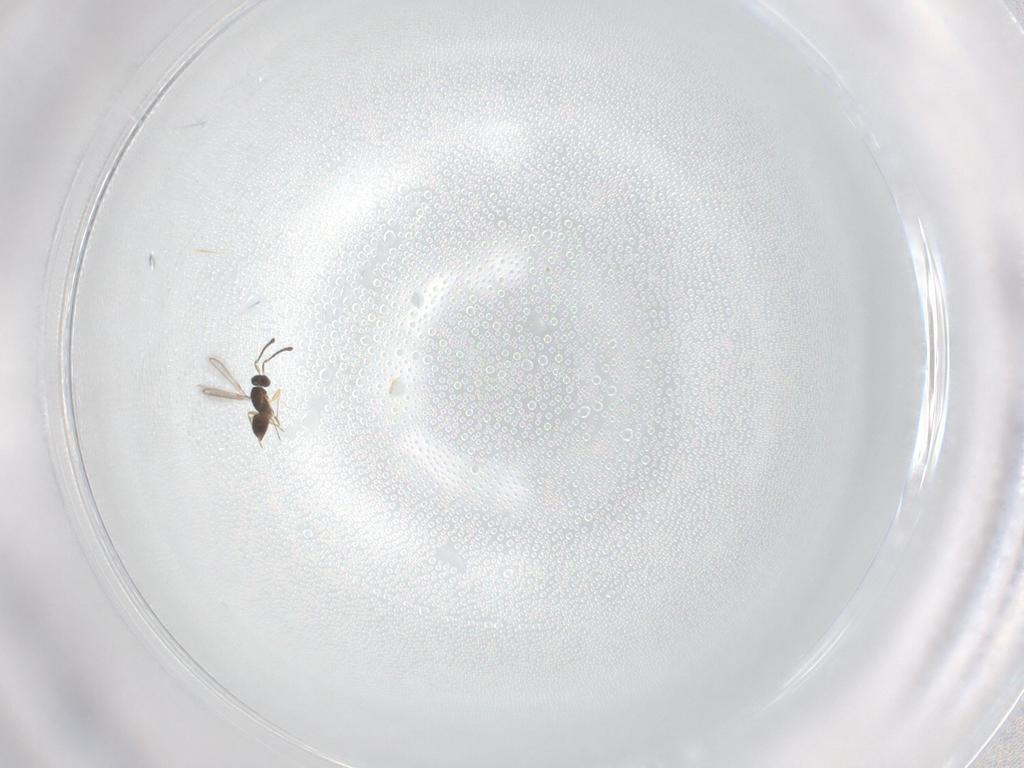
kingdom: Animalia
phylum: Arthropoda
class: Insecta
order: Hymenoptera
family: Mymaridae
